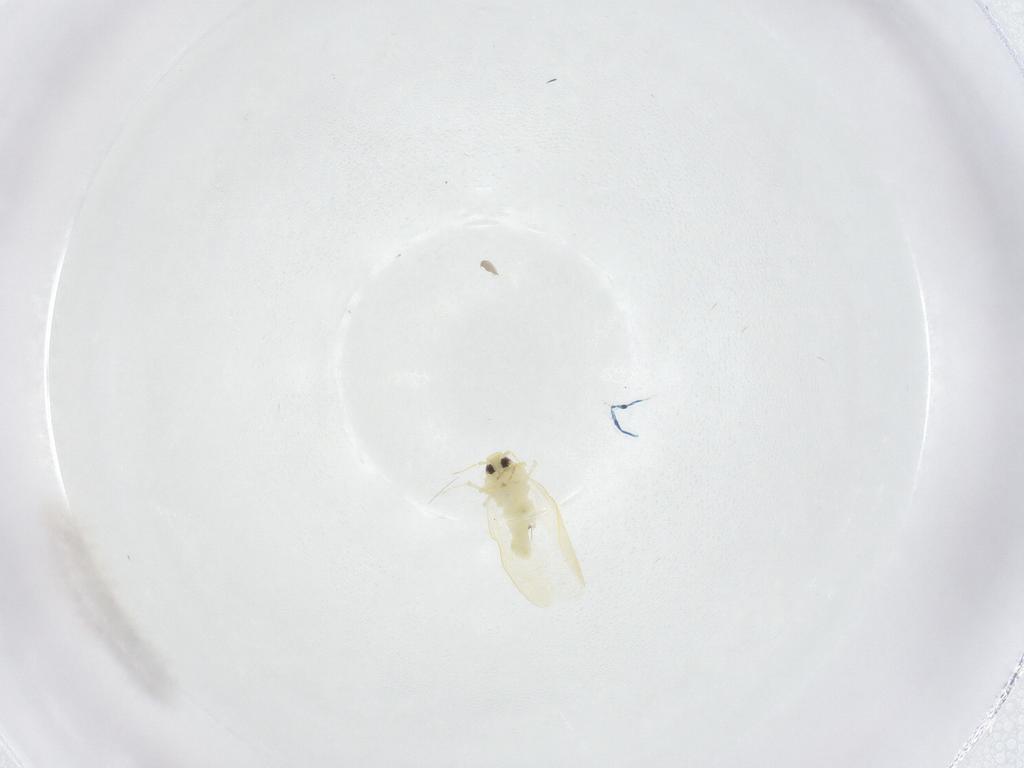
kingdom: Animalia
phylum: Arthropoda
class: Insecta
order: Hemiptera
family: Aleyrodidae
